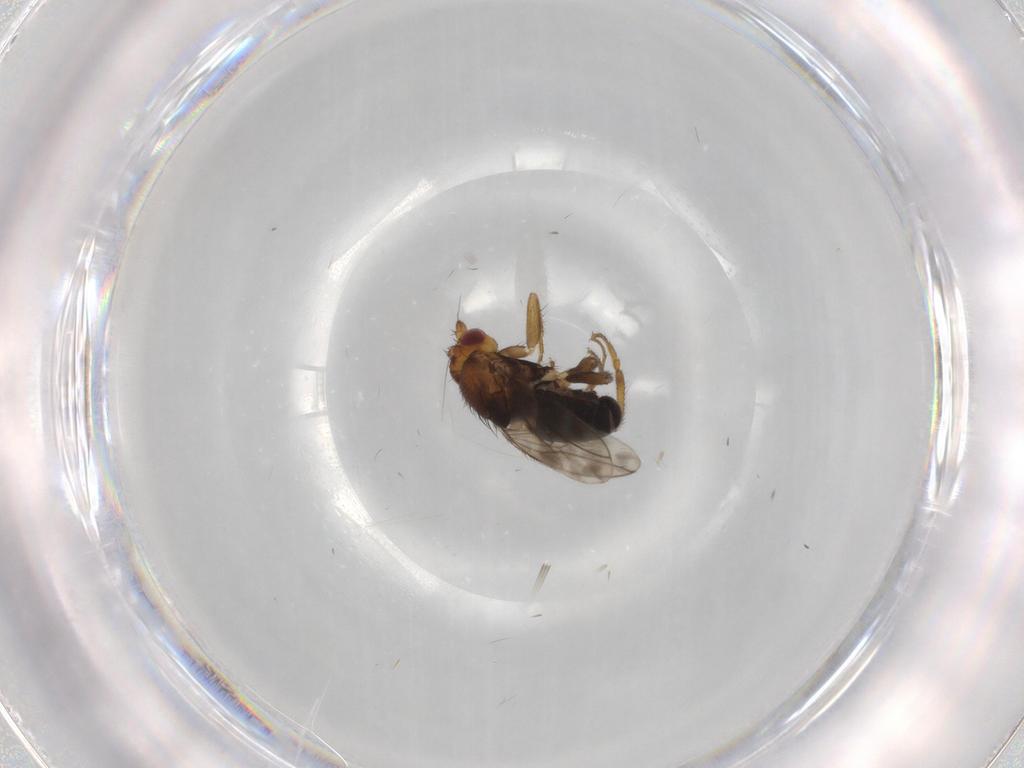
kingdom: Animalia
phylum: Arthropoda
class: Insecta
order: Diptera
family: Sphaeroceridae
